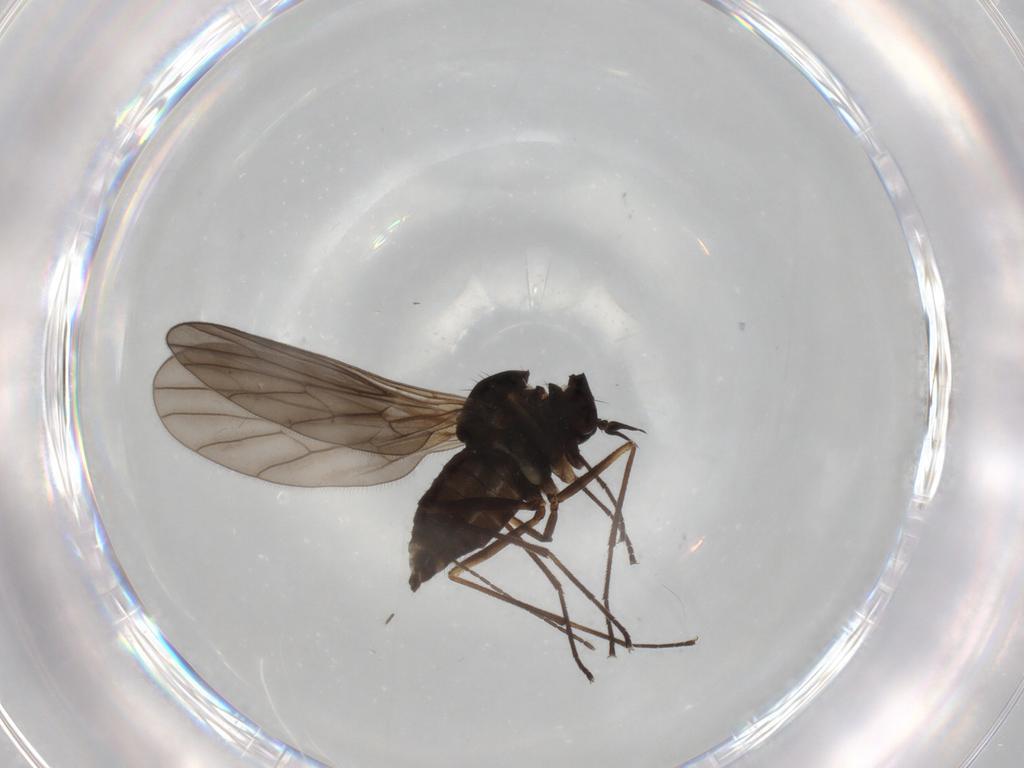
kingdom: Animalia
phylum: Arthropoda
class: Insecta
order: Diptera
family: Empididae
